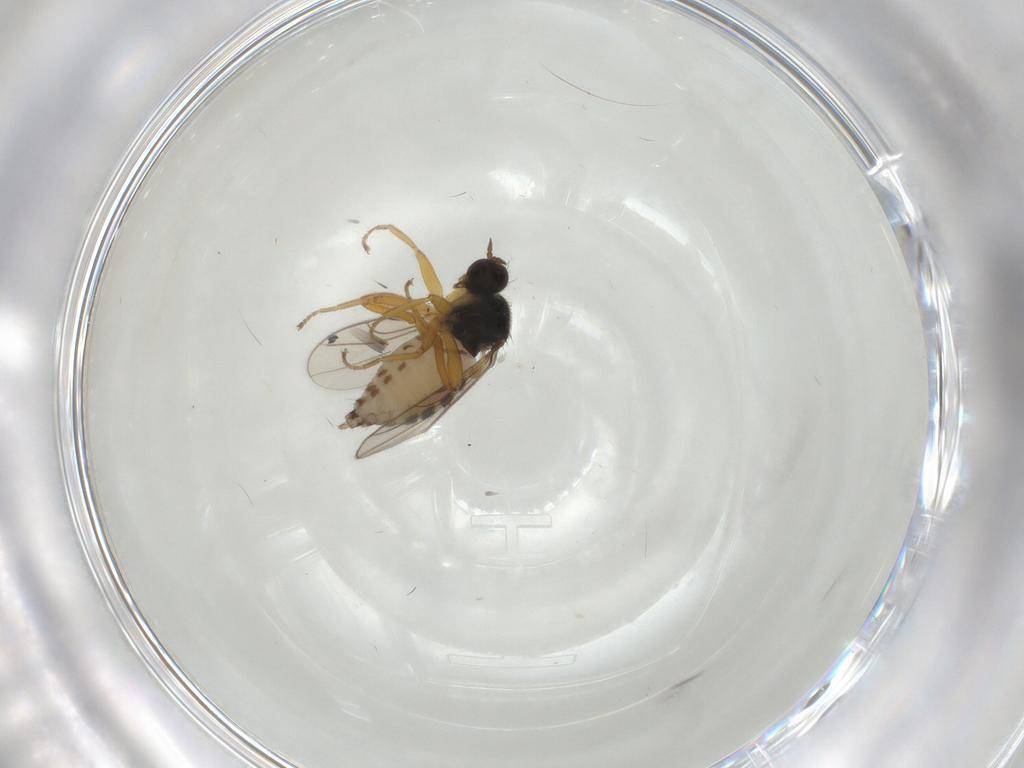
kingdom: Animalia
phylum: Arthropoda
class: Insecta
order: Diptera
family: Hybotidae
